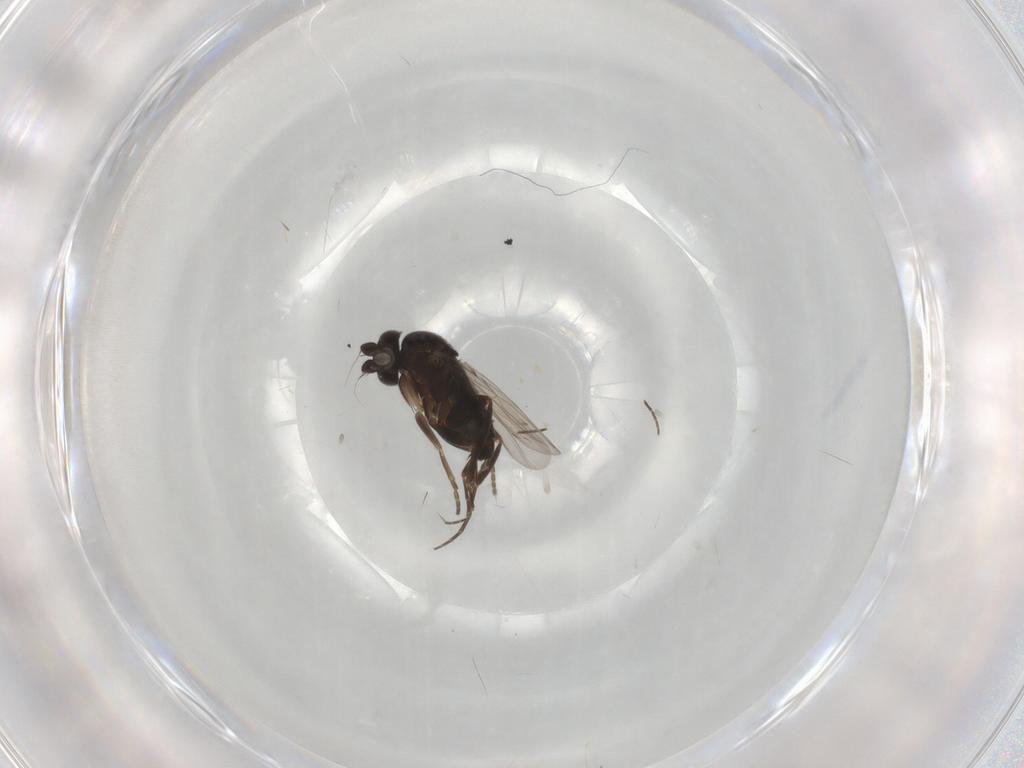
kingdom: Animalia
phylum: Arthropoda
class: Insecta
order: Diptera
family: Phoridae
